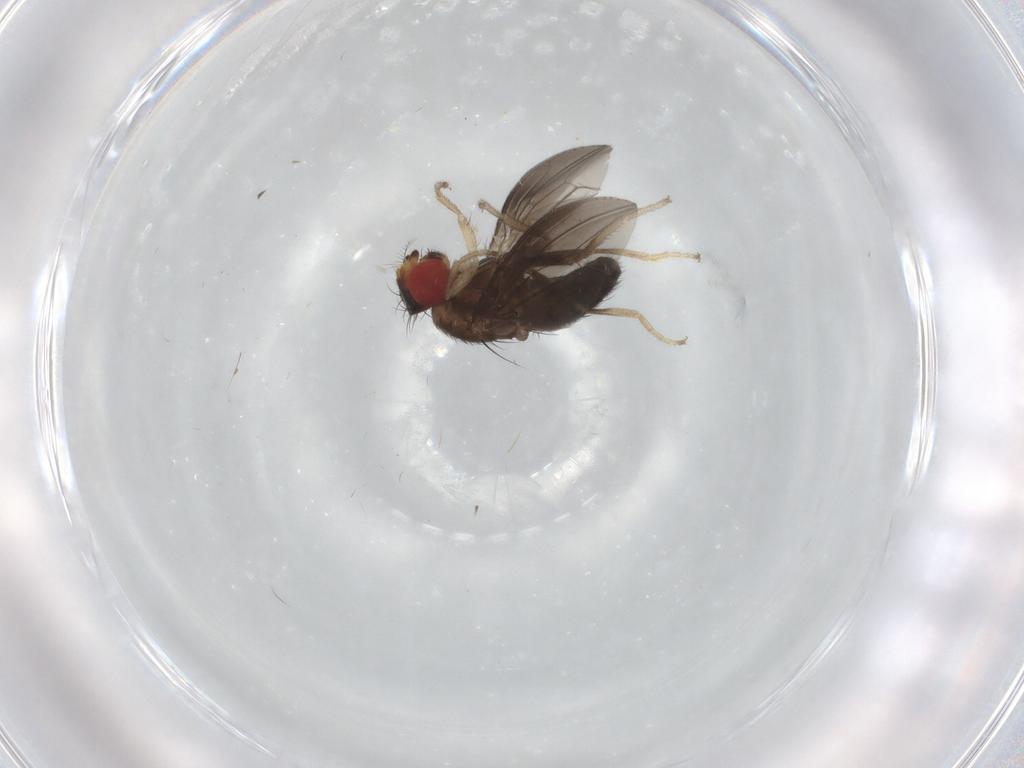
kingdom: Animalia
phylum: Arthropoda
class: Insecta
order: Diptera
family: Drosophilidae
